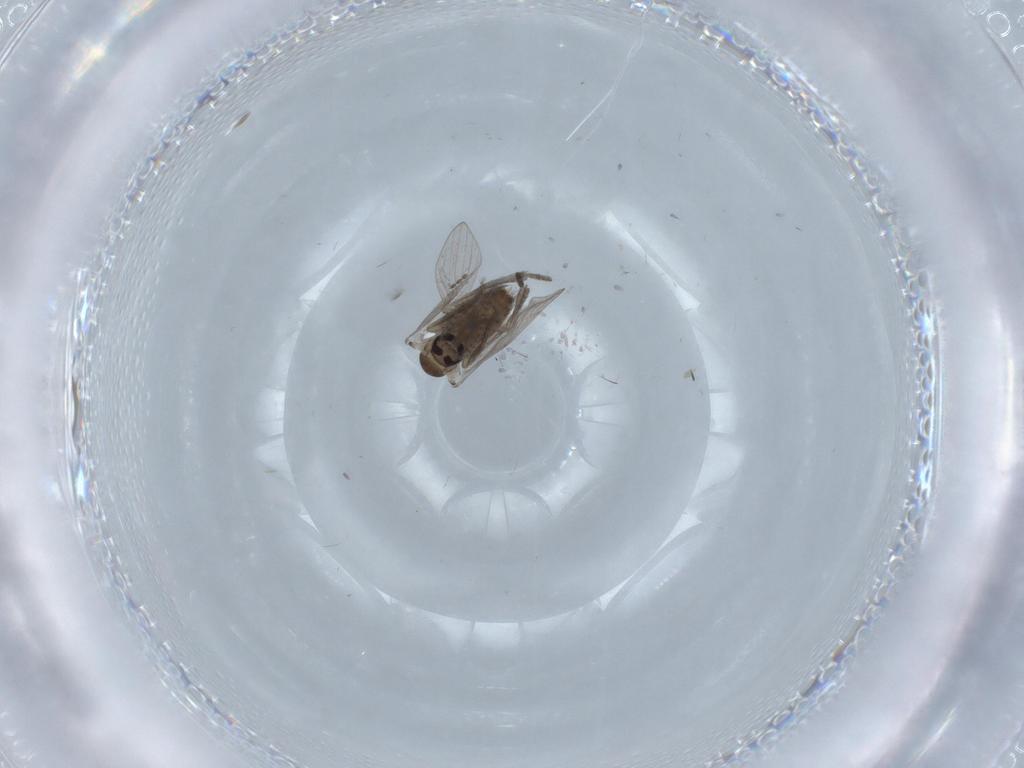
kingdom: Animalia
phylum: Arthropoda
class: Insecta
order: Diptera
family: Psychodidae
